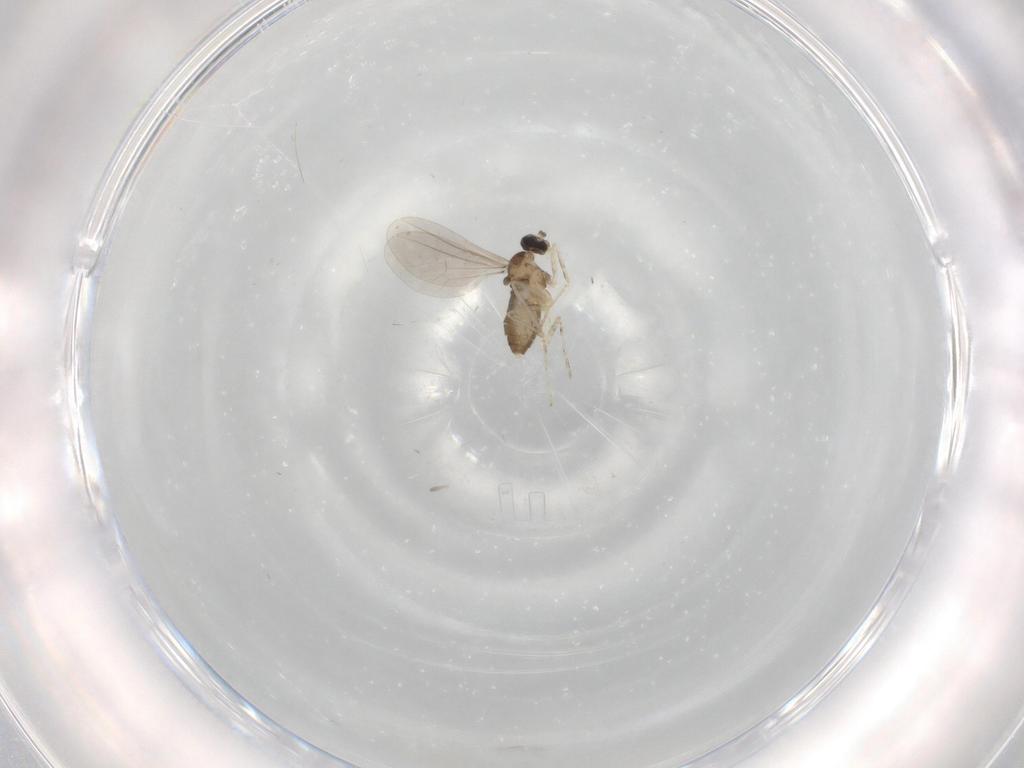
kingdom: Animalia
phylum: Arthropoda
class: Insecta
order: Diptera
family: Cecidomyiidae
